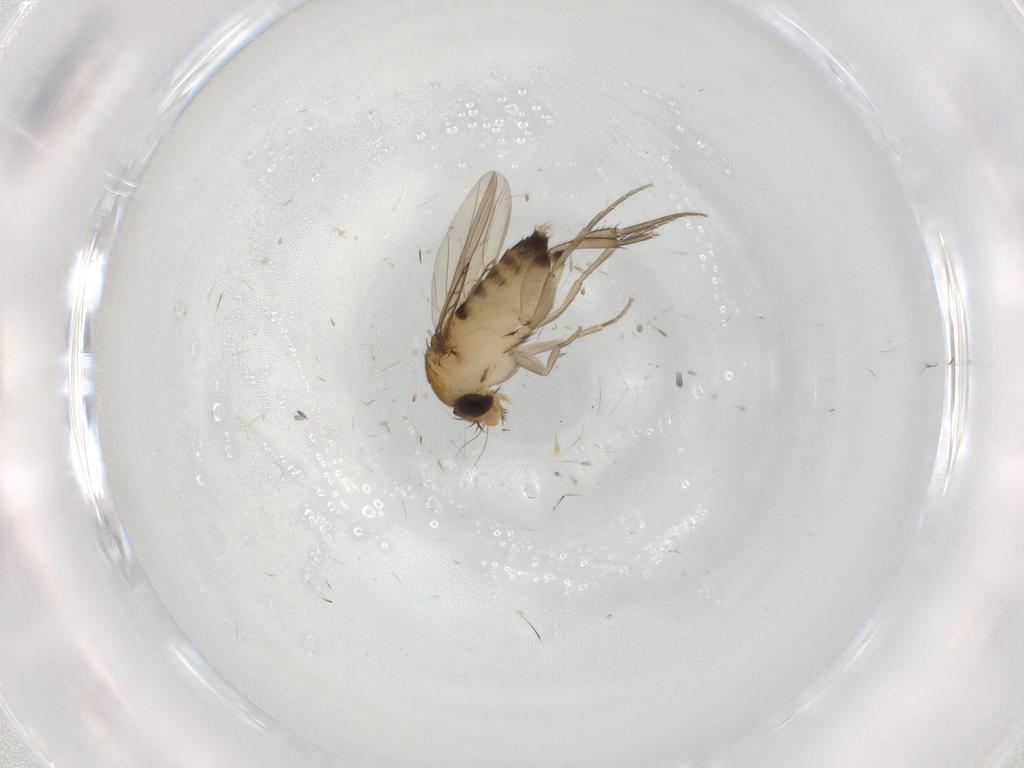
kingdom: Animalia
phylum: Arthropoda
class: Insecta
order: Diptera
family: Phoridae
